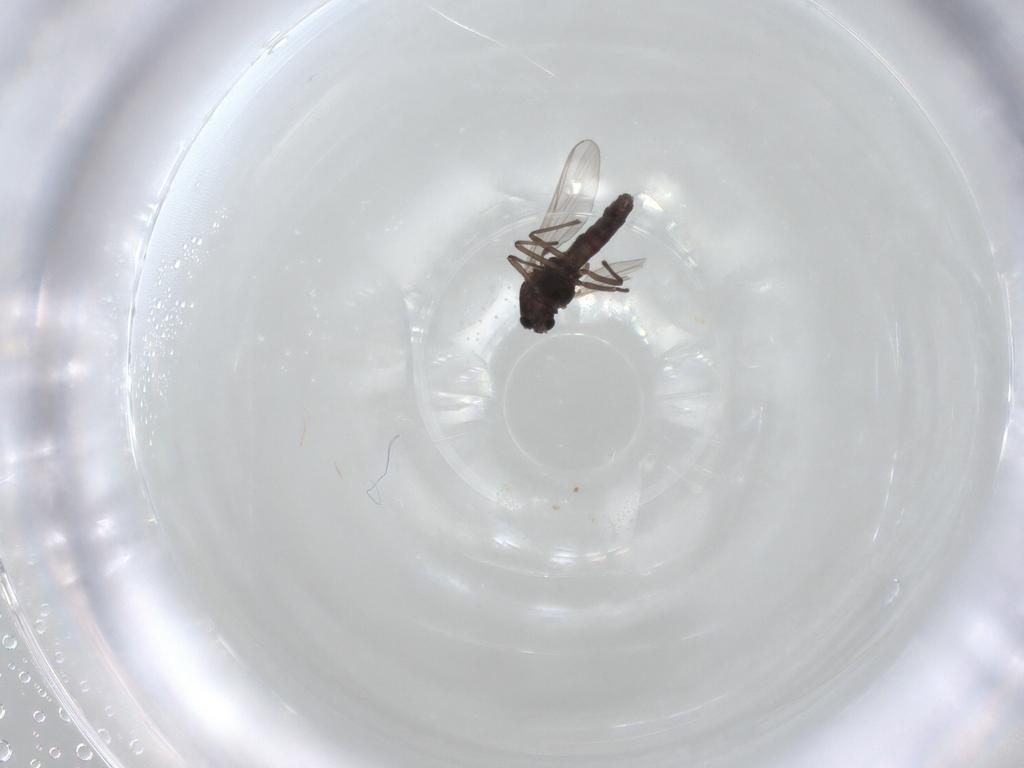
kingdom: Animalia
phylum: Arthropoda
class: Insecta
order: Diptera
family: Chironomidae
